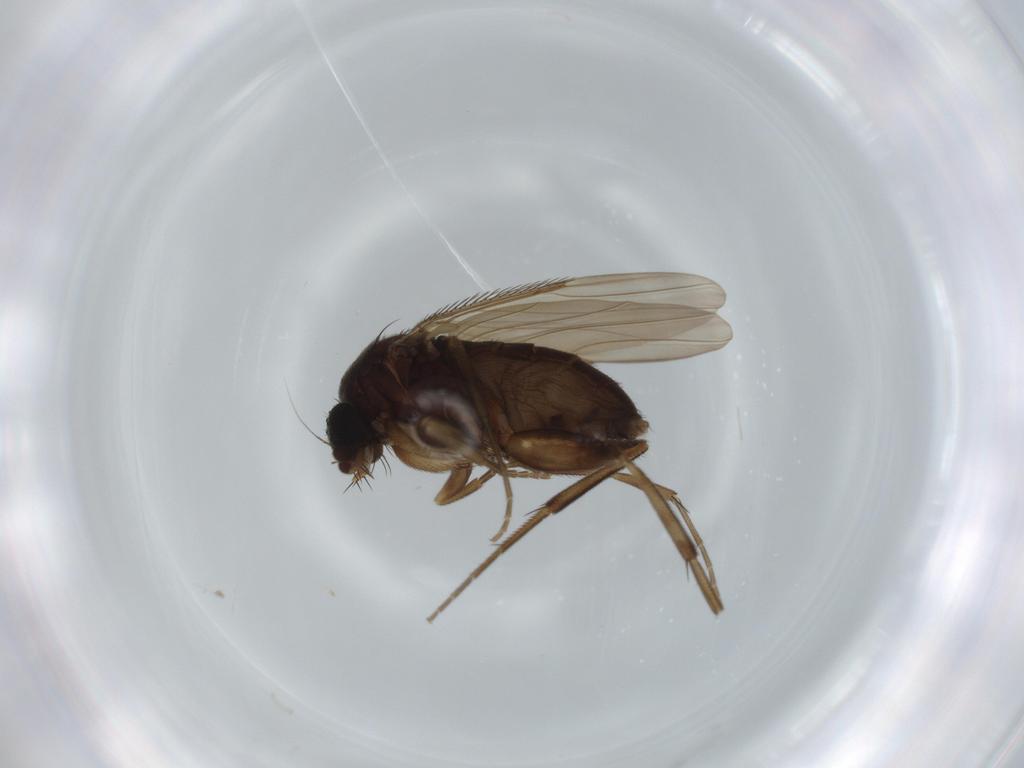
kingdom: Animalia
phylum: Arthropoda
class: Insecta
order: Diptera
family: Phoridae
